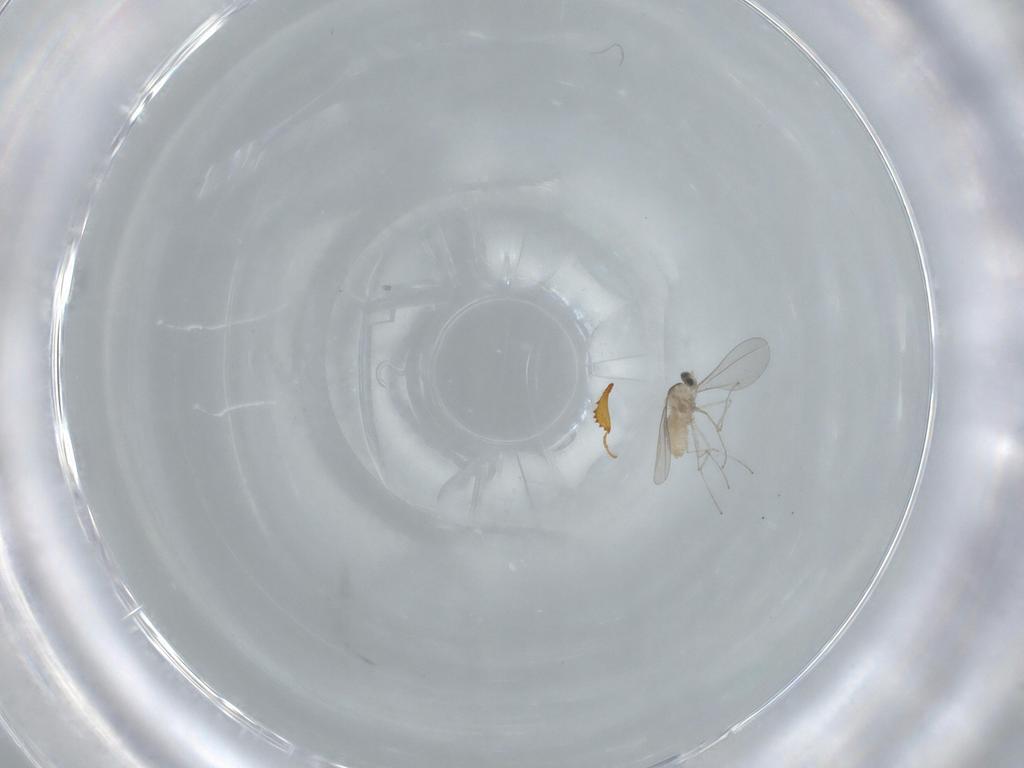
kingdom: Animalia
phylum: Arthropoda
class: Insecta
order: Diptera
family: Cecidomyiidae
